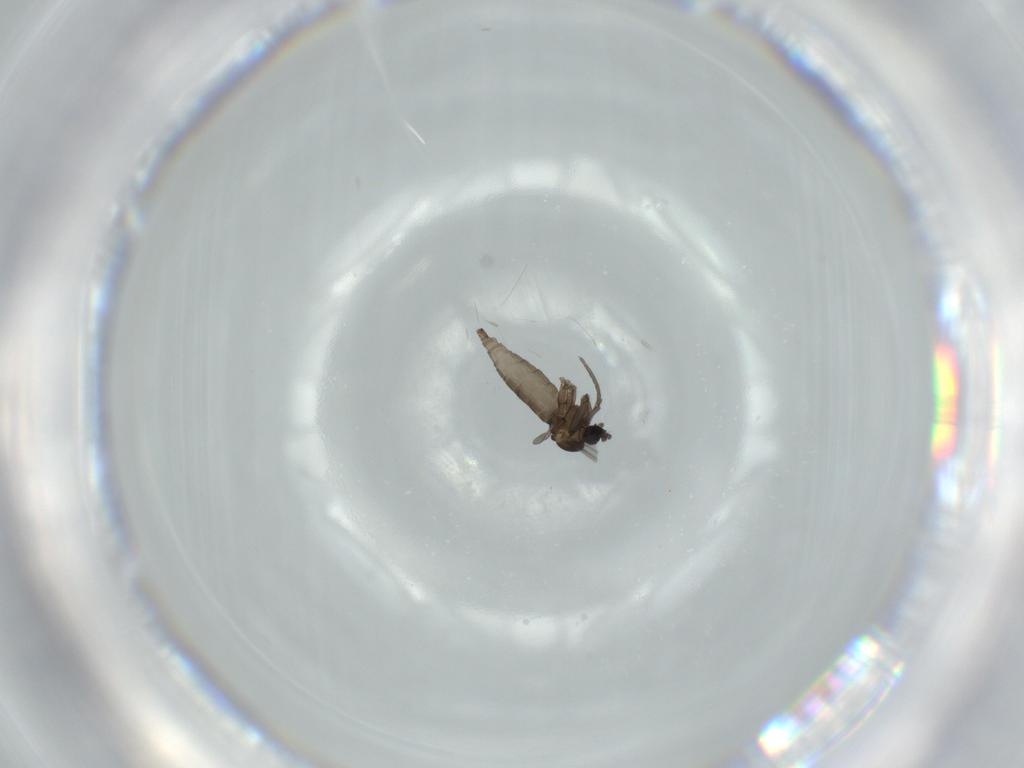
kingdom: Animalia
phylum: Arthropoda
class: Insecta
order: Diptera
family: Sciaridae
